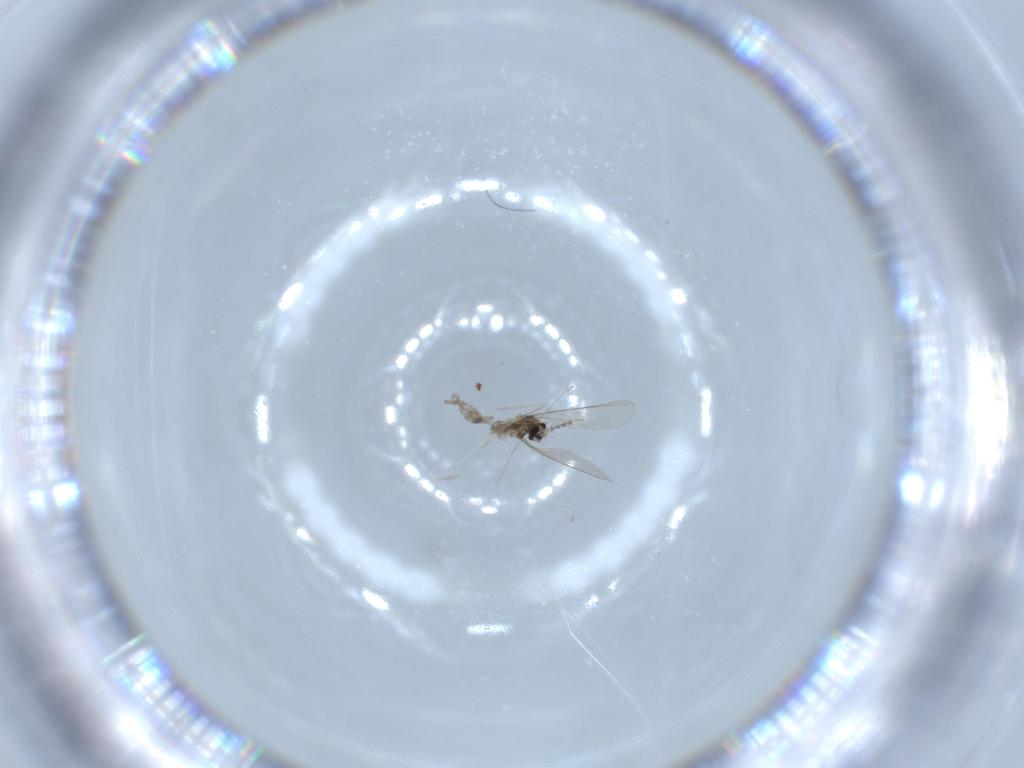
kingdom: Animalia
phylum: Arthropoda
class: Insecta
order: Diptera
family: Cecidomyiidae
